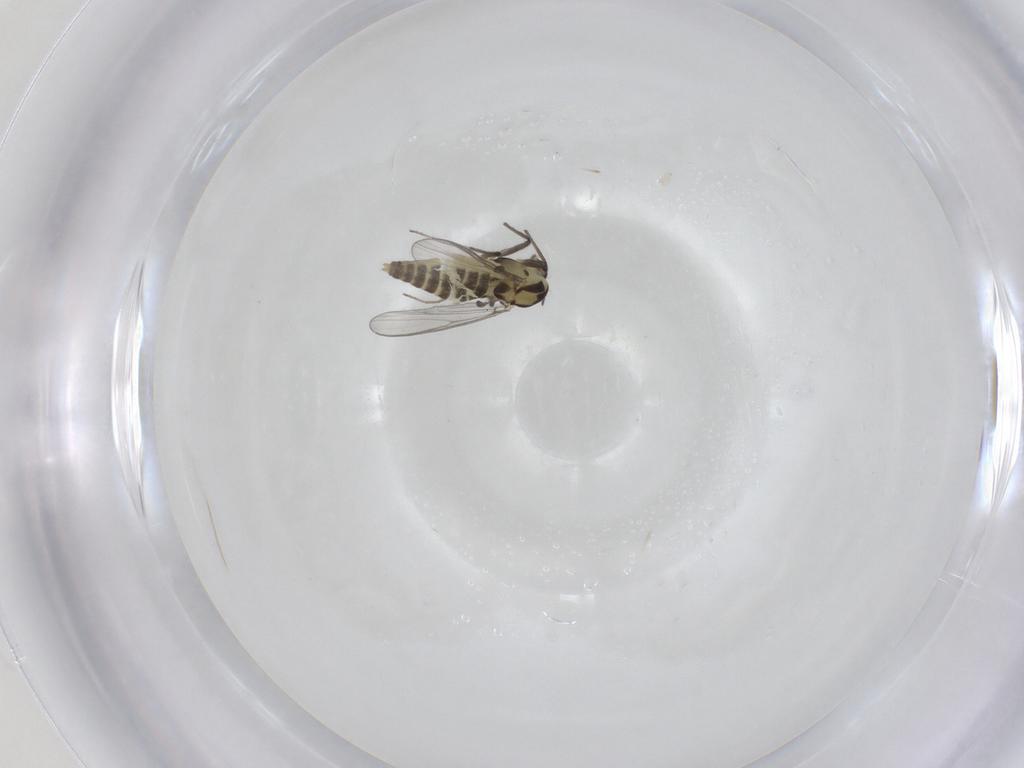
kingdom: Animalia
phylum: Arthropoda
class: Insecta
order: Diptera
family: Chironomidae
